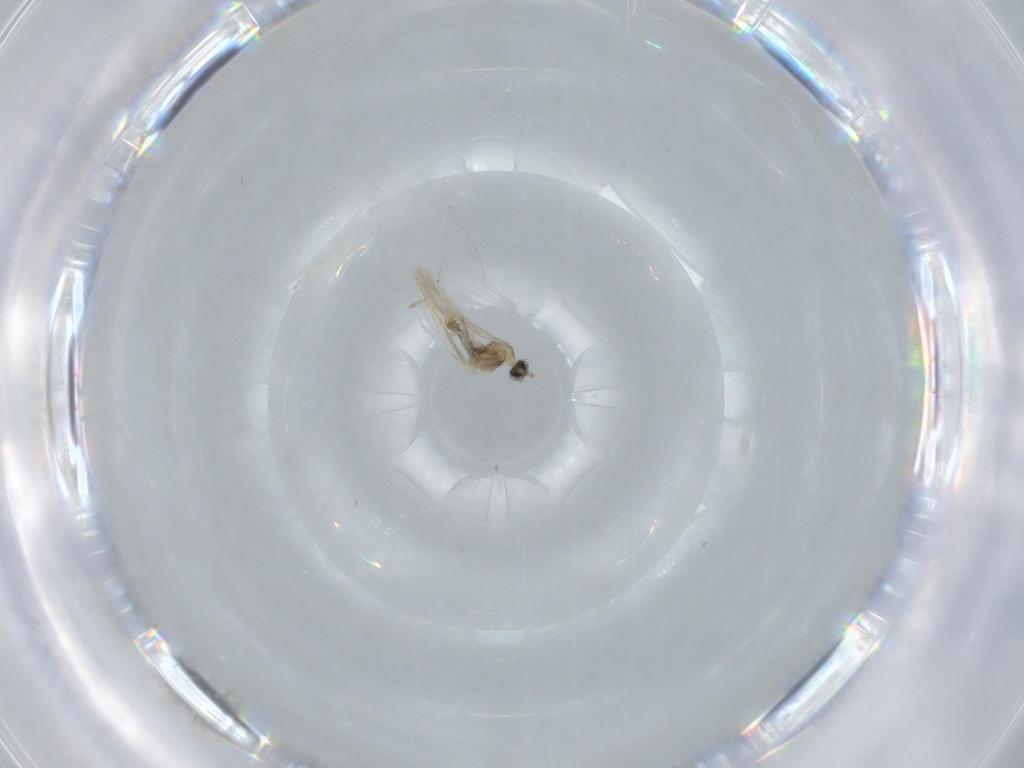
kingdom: Animalia
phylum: Arthropoda
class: Insecta
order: Diptera
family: Cecidomyiidae
